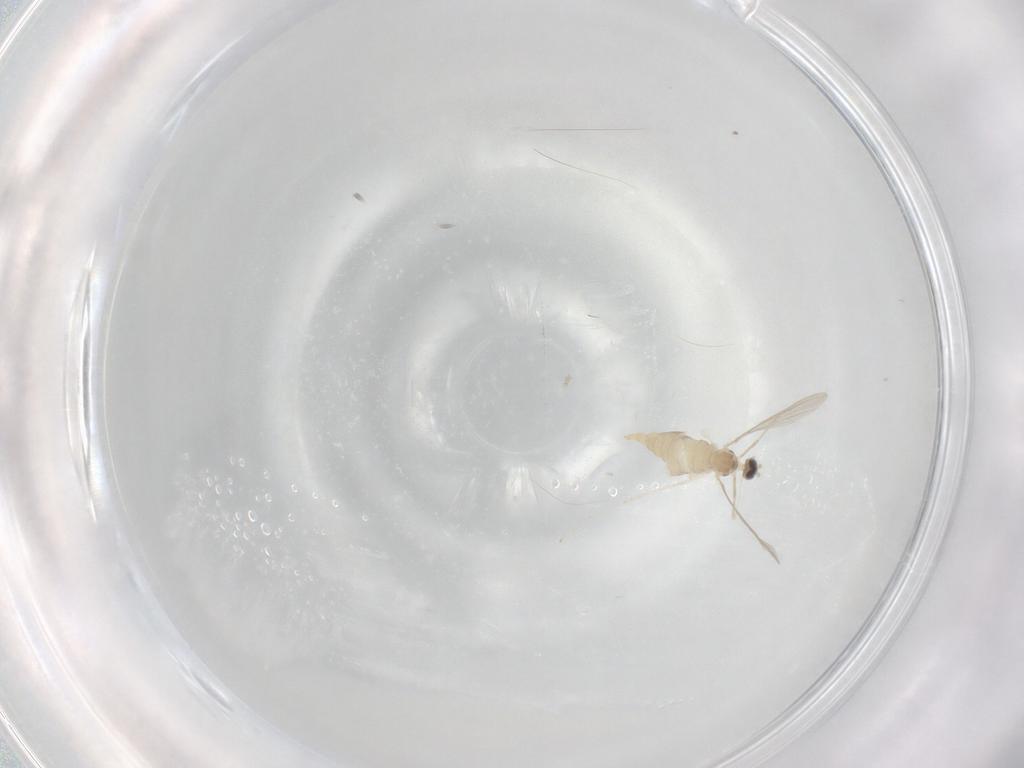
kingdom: Animalia
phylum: Arthropoda
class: Insecta
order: Diptera
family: Cecidomyiidae
